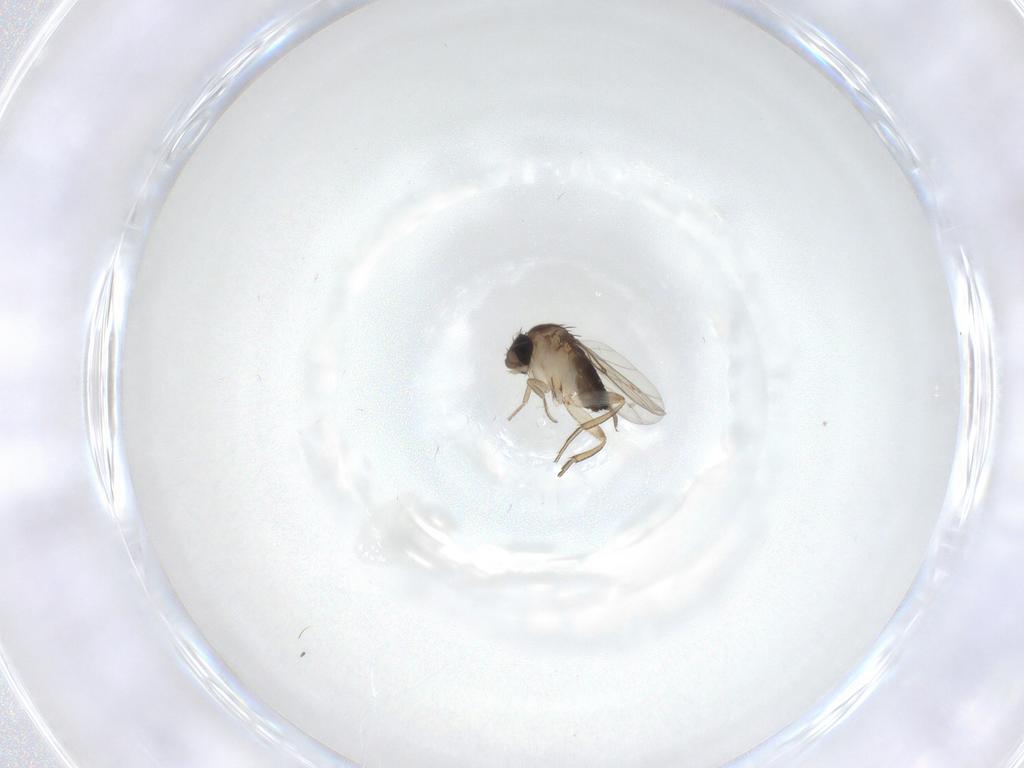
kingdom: Animalia
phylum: Arthropoda
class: Insecta
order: Diptera
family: Phoridae
